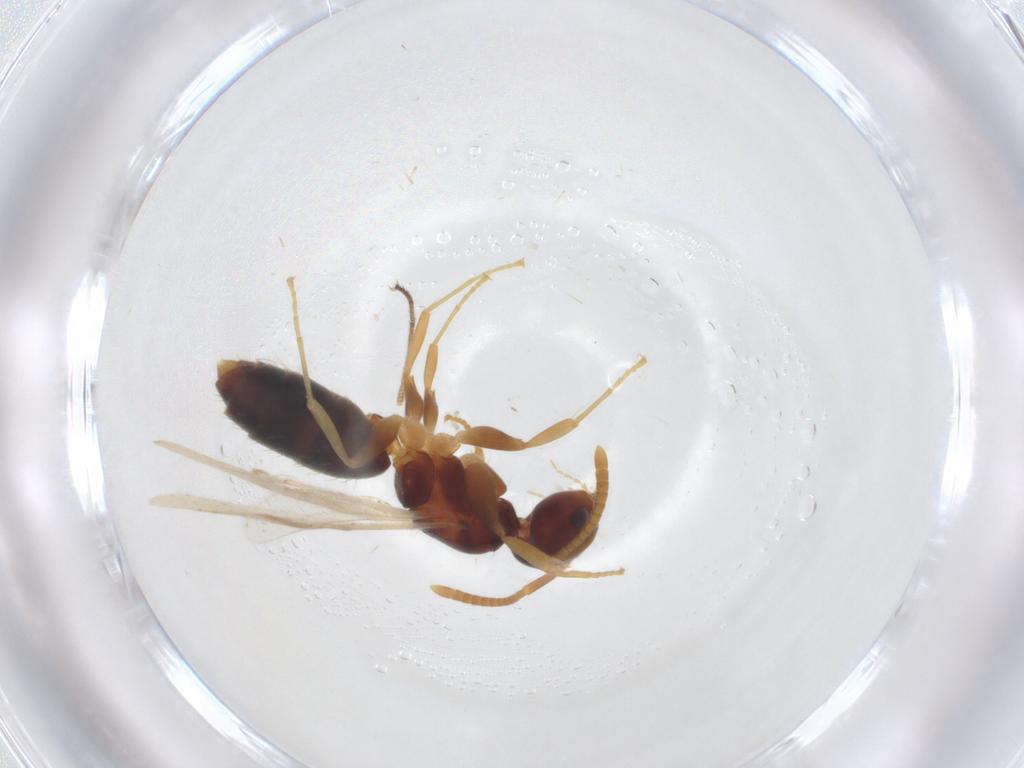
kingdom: Animalia
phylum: Arthropoda
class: Insecta
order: Hymenoptera
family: Formicidae
